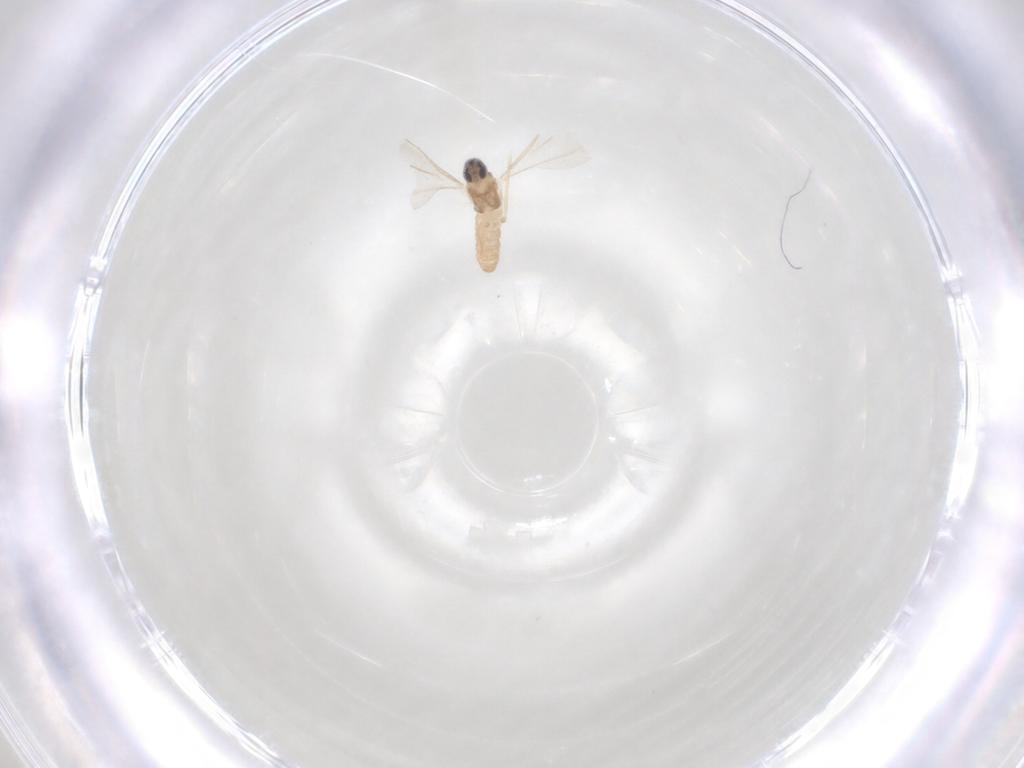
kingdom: Animalia
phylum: Arthropoda
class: Insecta
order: Diptera
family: Cecidomyiidae
